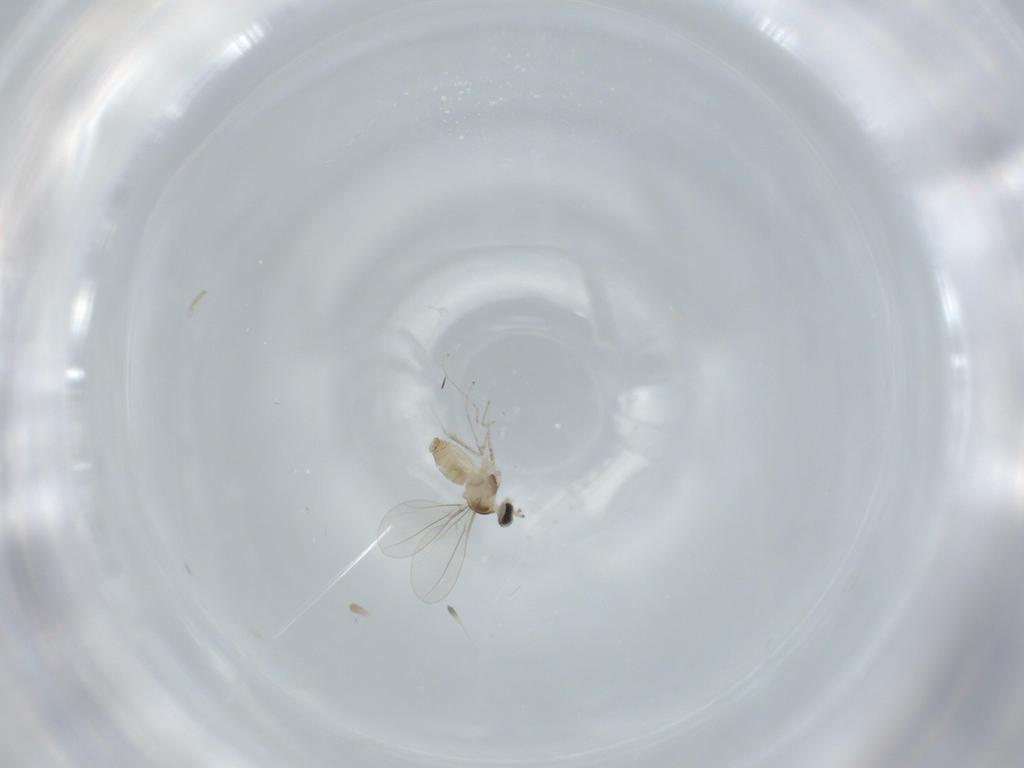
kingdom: Animalia
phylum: Arthropoda
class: Insecta
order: Diptera
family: Cecidomyiidae
